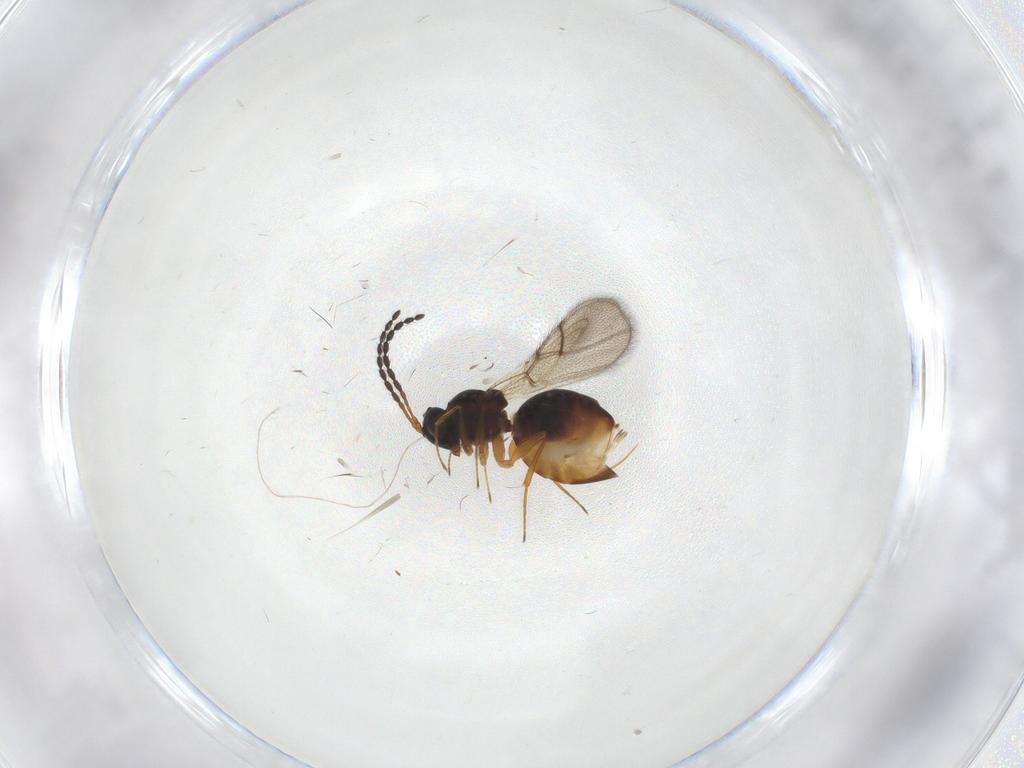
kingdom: Animalia
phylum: Arthropoda
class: Insecta
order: Hymenoptera
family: Figitidae
